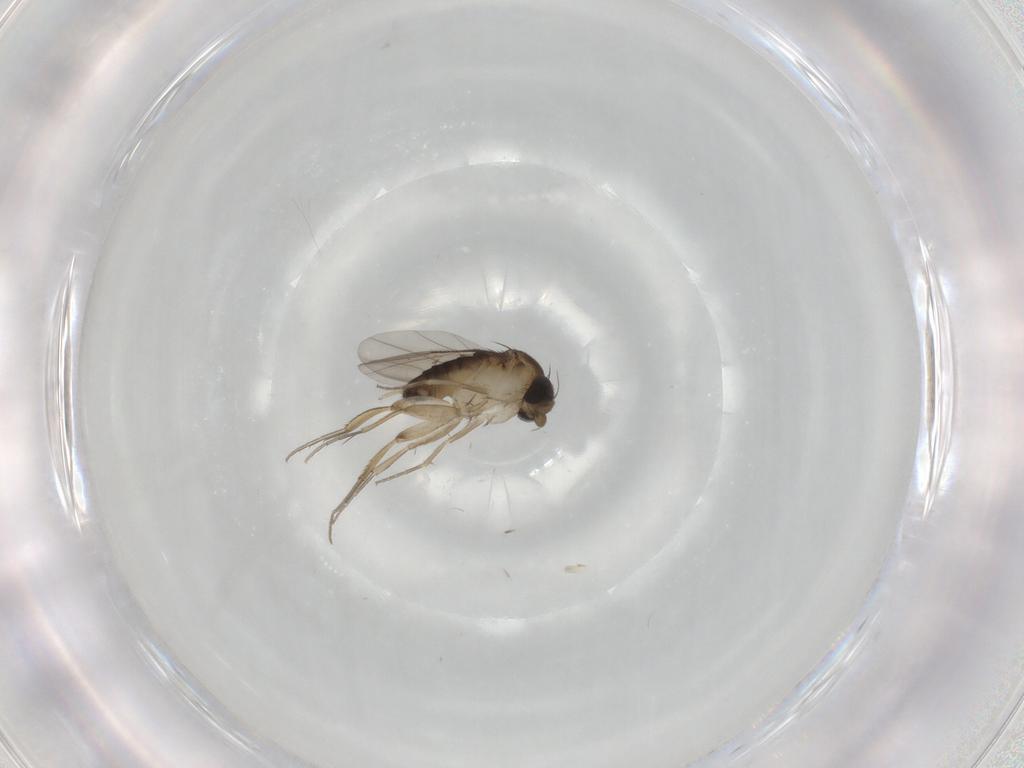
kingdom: Animalia
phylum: Arthropoda
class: Insecta
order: Diptera
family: Phoridae
